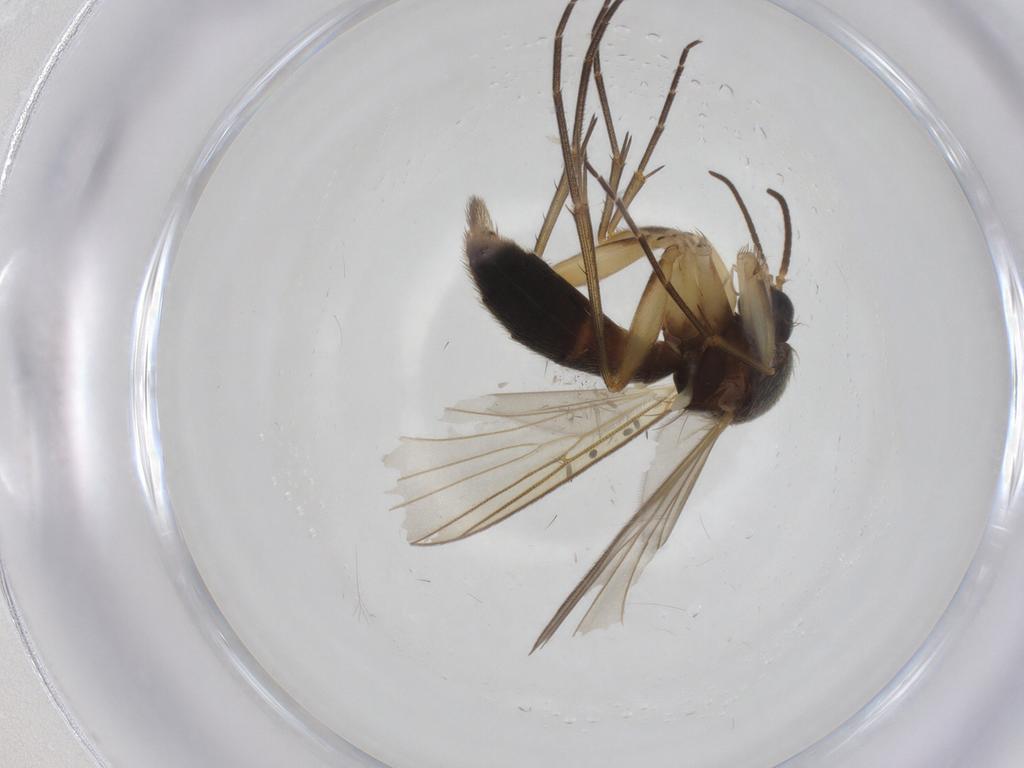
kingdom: Animalia
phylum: Arthropoda
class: Insecta
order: Diptera
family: Mycetophilidae
